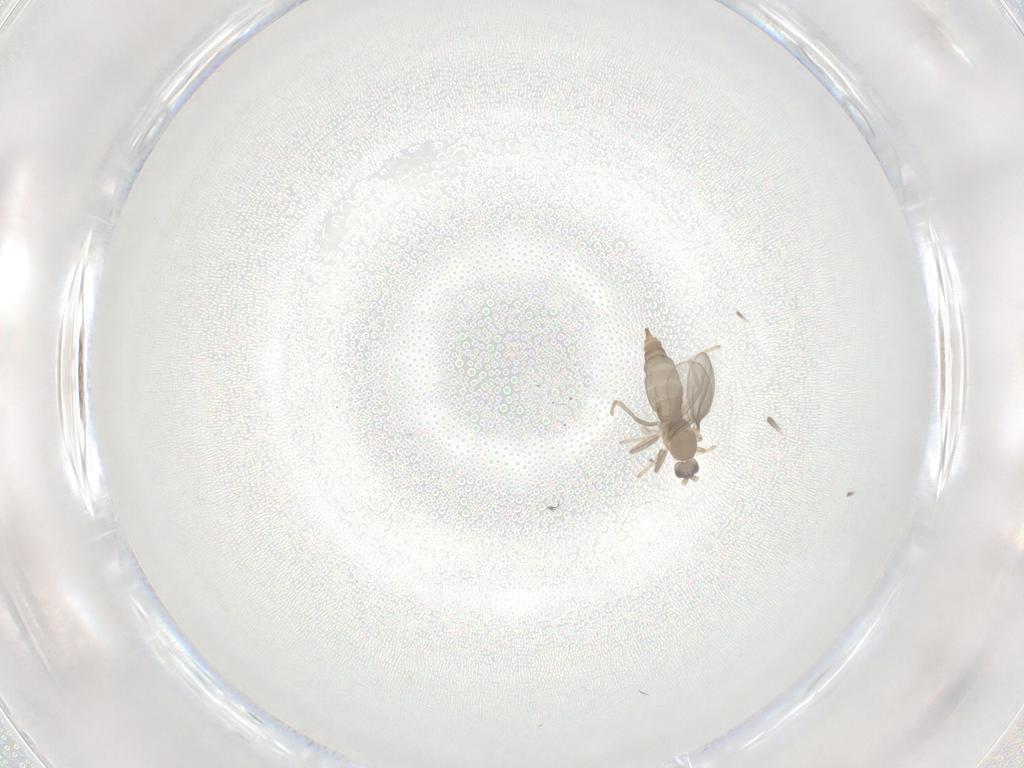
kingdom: Animalia
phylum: Arthropoda
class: Insecta
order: Diptera
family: Cecidomyiidae
